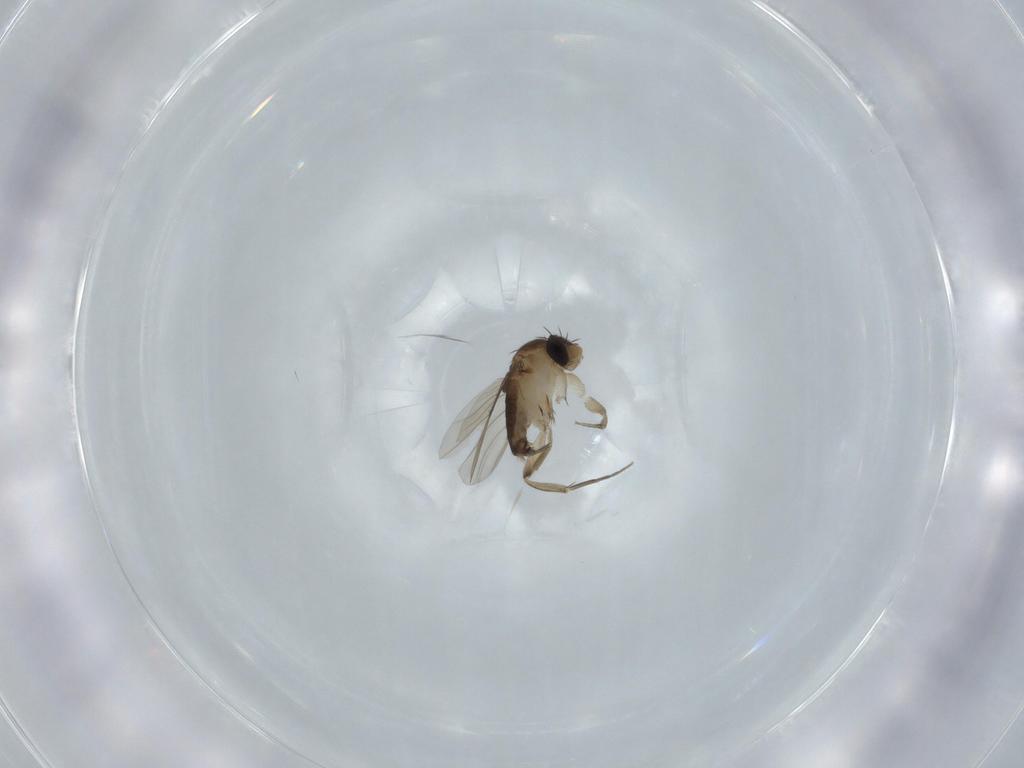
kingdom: Animalia
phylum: Arthropoda
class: Insecta
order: Diptera
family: Phoridae
